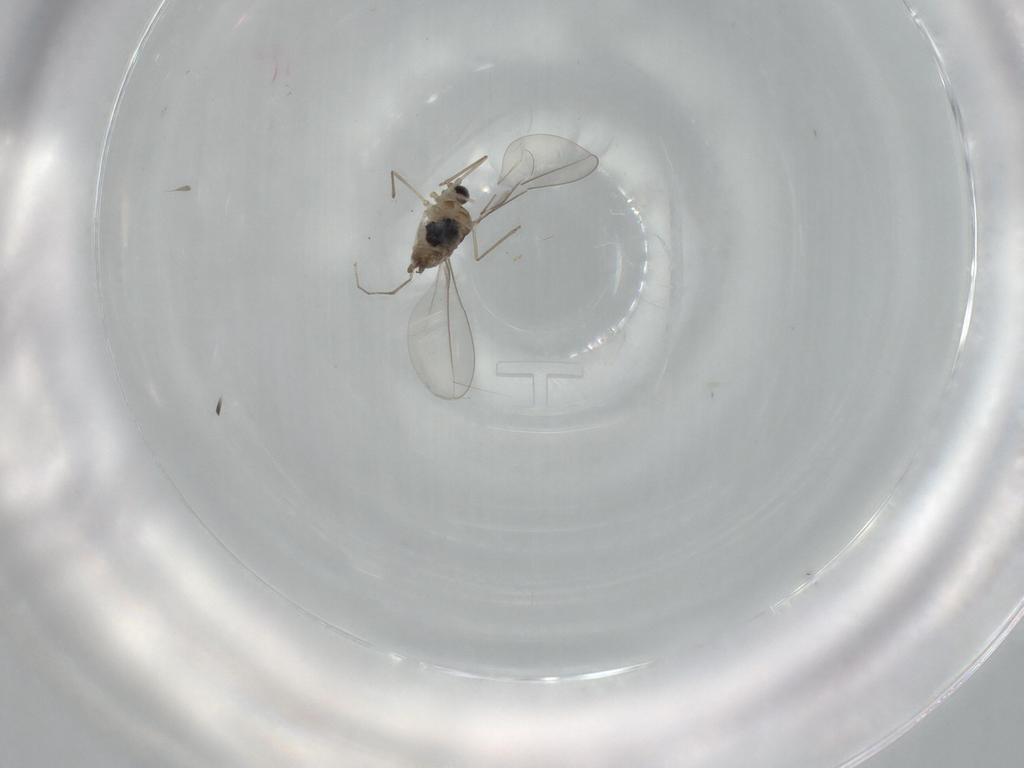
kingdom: Animalia
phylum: Arthropoda
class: Insecta
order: Diptera
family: Cecidomyiidae
